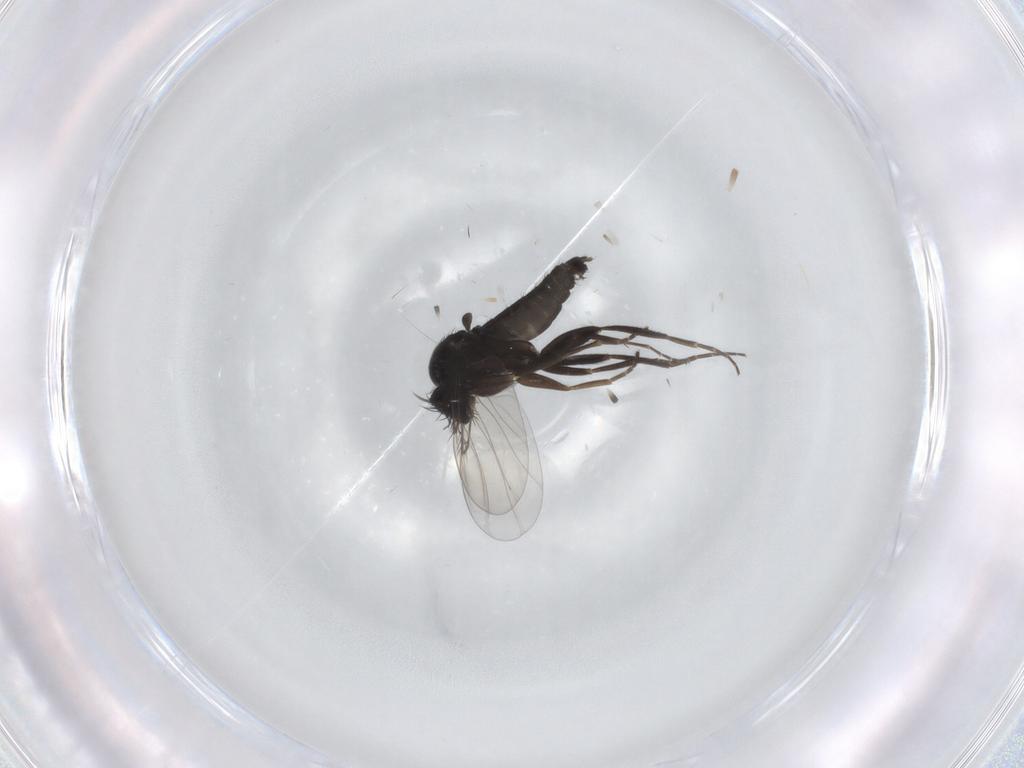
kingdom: Animalia
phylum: Arthropoda
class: Insecta
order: Diptera
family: Phoridae
